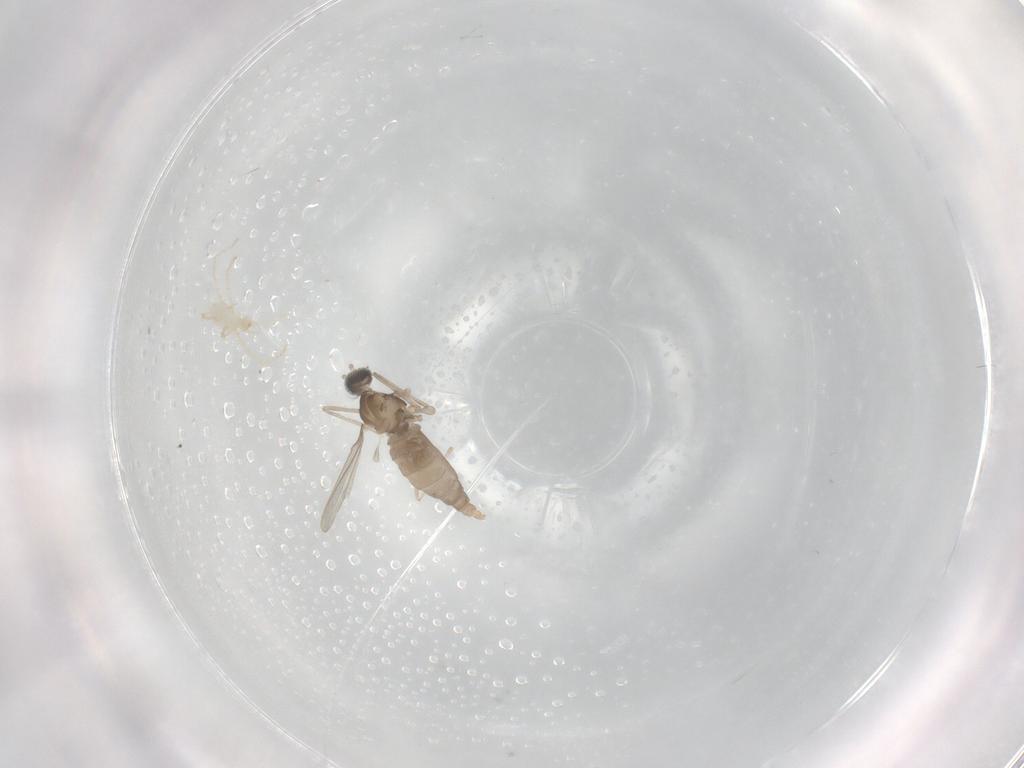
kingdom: Animalia
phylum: Arthropoda
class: Insecta
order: Diptera
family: Cecidomyiidae
